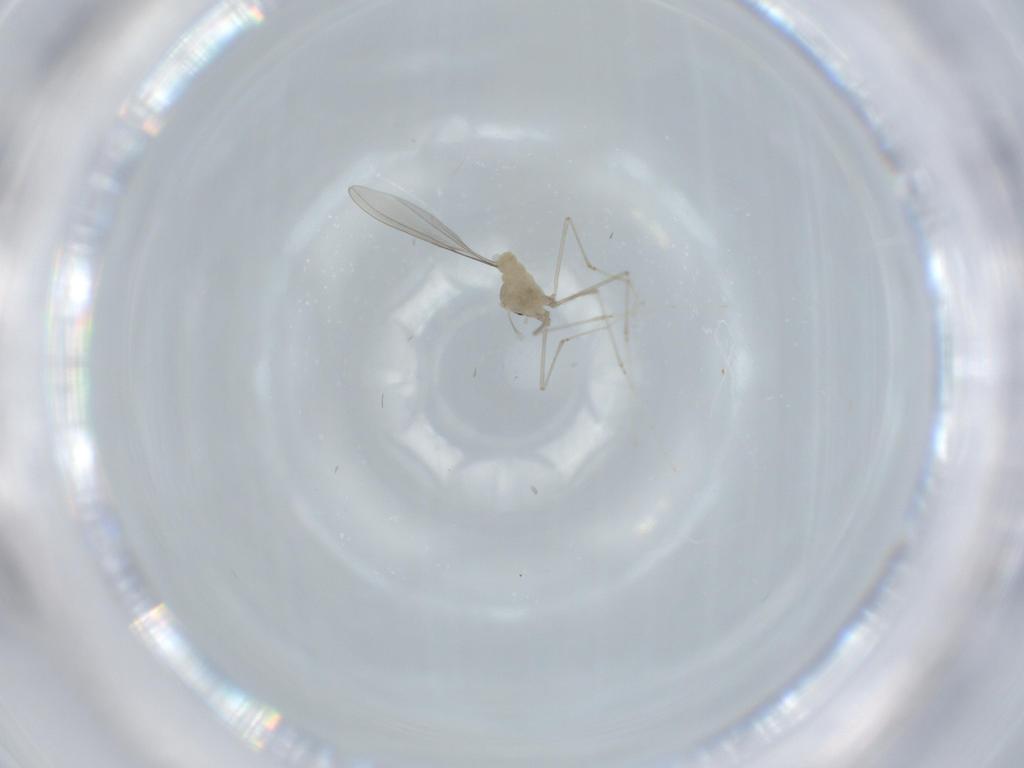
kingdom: Animalia
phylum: Arthropoda
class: Insecta
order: Diptera
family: Cecidomyiidae
